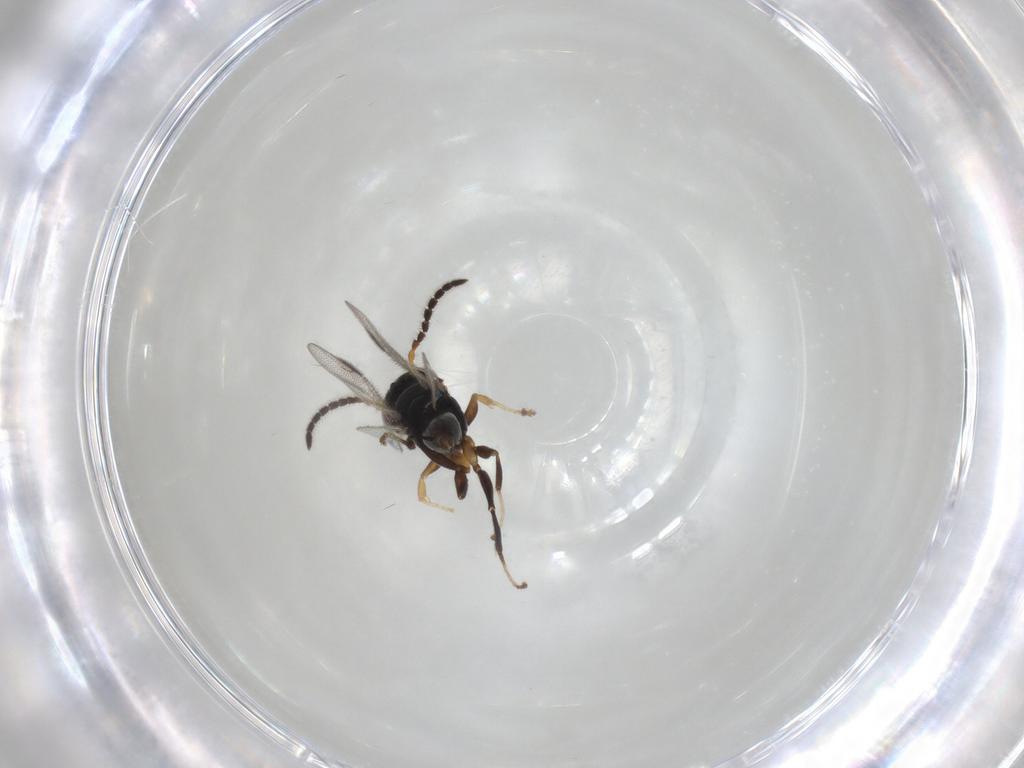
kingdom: Animalia
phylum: Arthropoda
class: Insecta
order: Hymenoptera
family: Dryinidae
